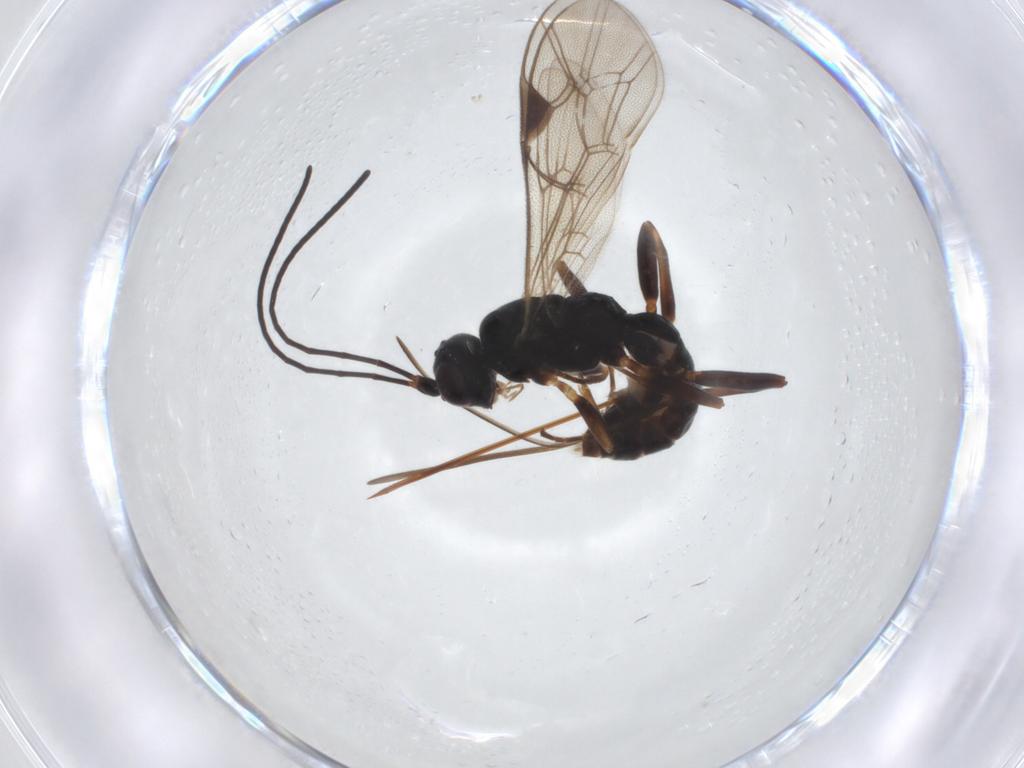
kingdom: Animalia
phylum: Arthropoda
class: Insecta
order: Hymenoptera
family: Ichneumonidae
